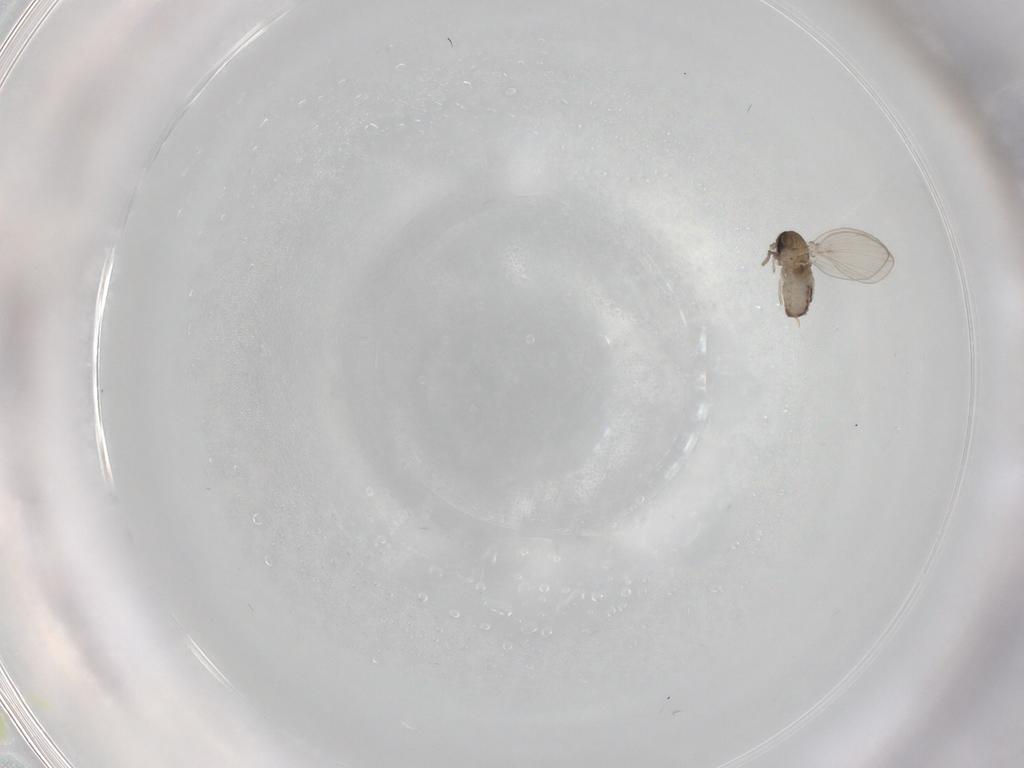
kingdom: Animalia
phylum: Arthropoda
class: Insecta
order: Diptera
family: Psychodidae
